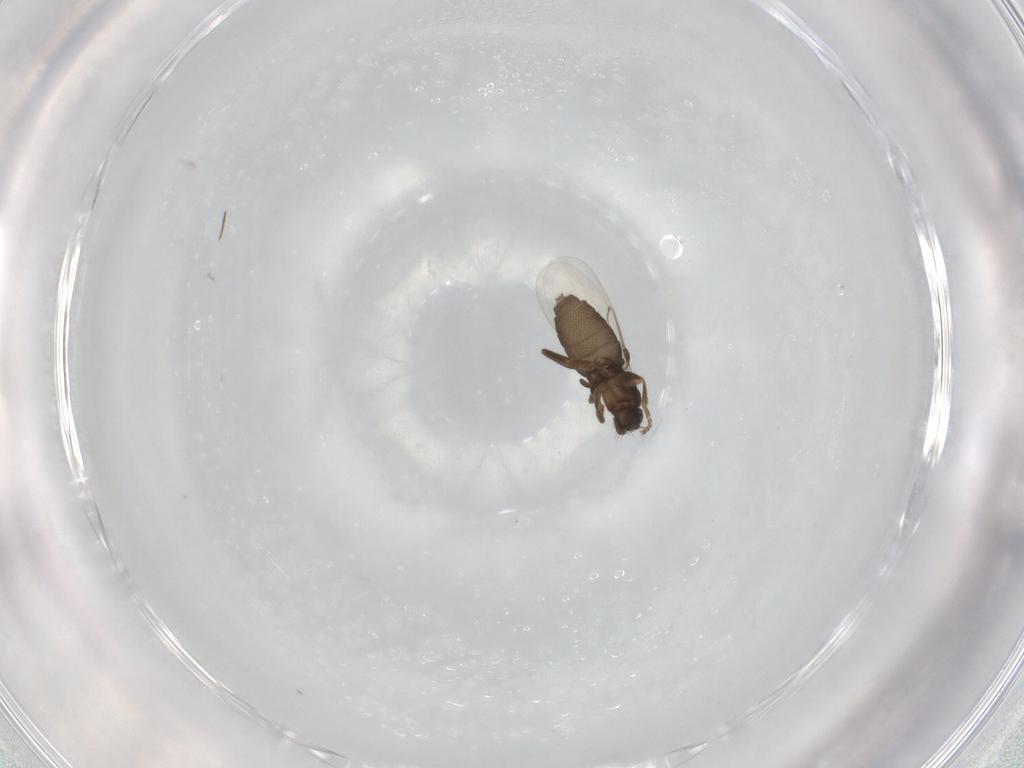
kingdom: Animalia
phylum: Arthropoda
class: Insecta
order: Diptera
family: Phoridae
